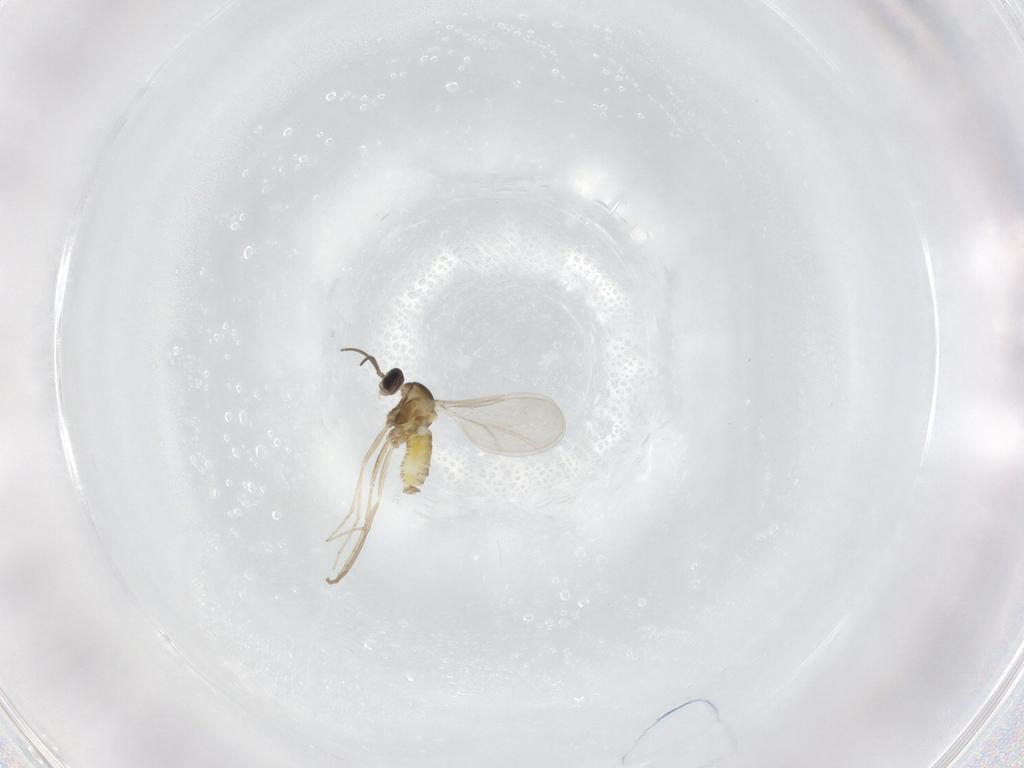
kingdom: Animalia
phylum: Arthropoda
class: Insecta
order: Diptera
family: Cecidomyiidae
